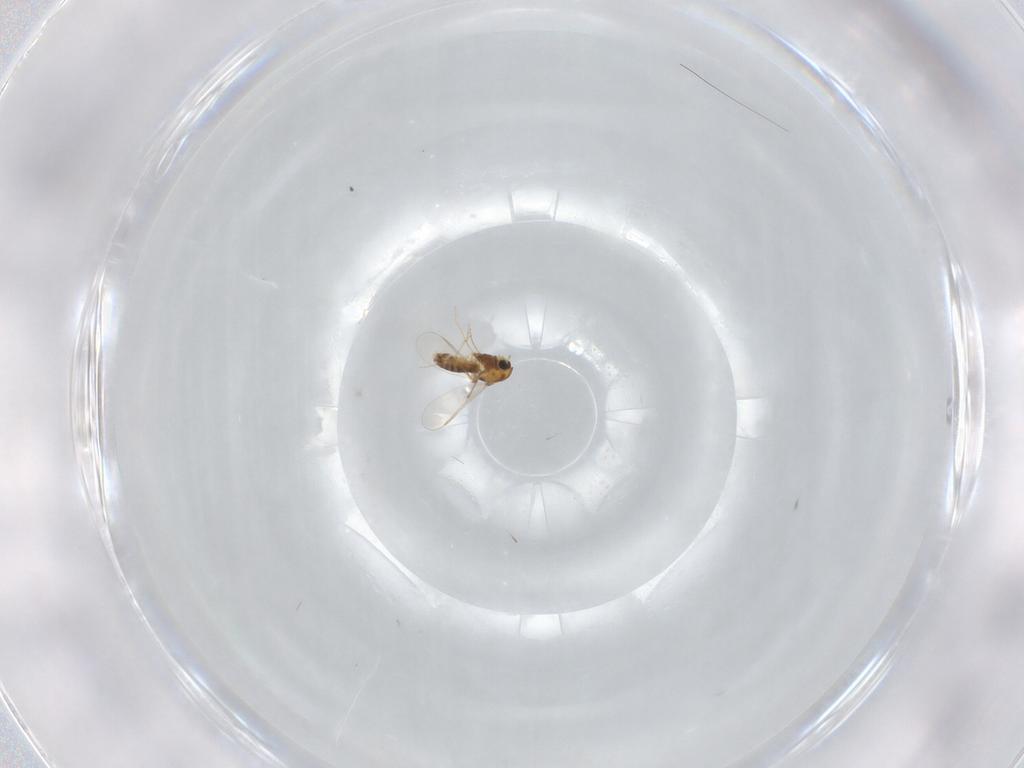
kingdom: Animalia
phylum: Arthropoda
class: Insecta
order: Diptera
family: Chironomidae
